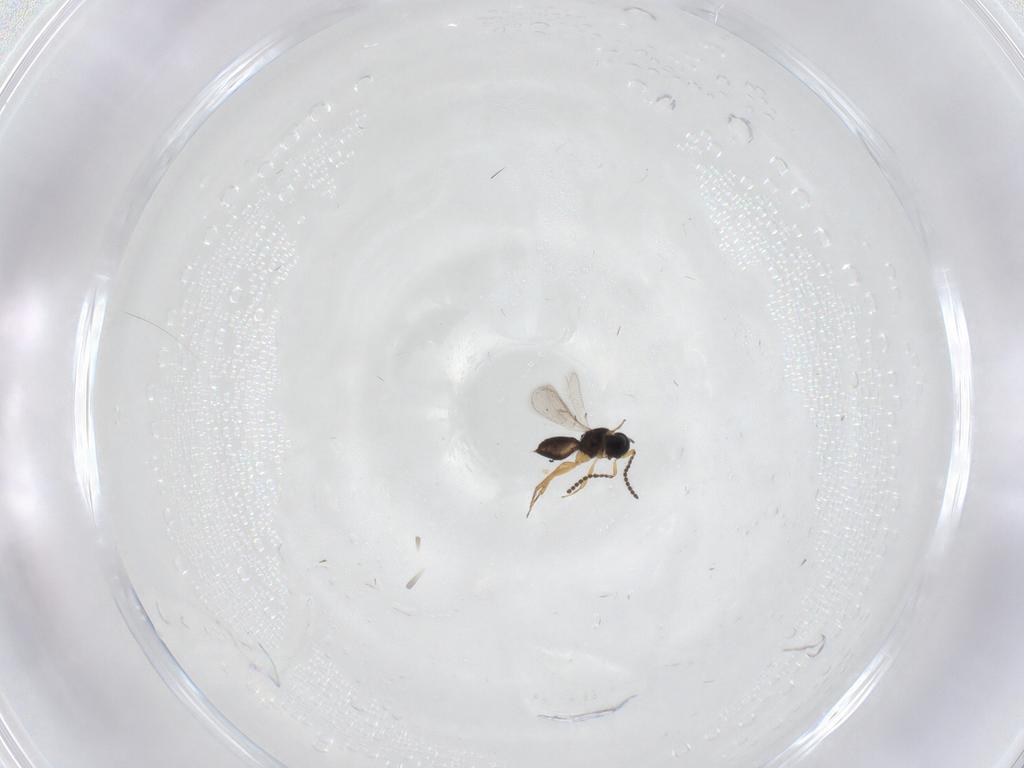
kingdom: Animalia
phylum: Arthropoda
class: Insecta
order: Hymenoptera
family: Scelionidae
